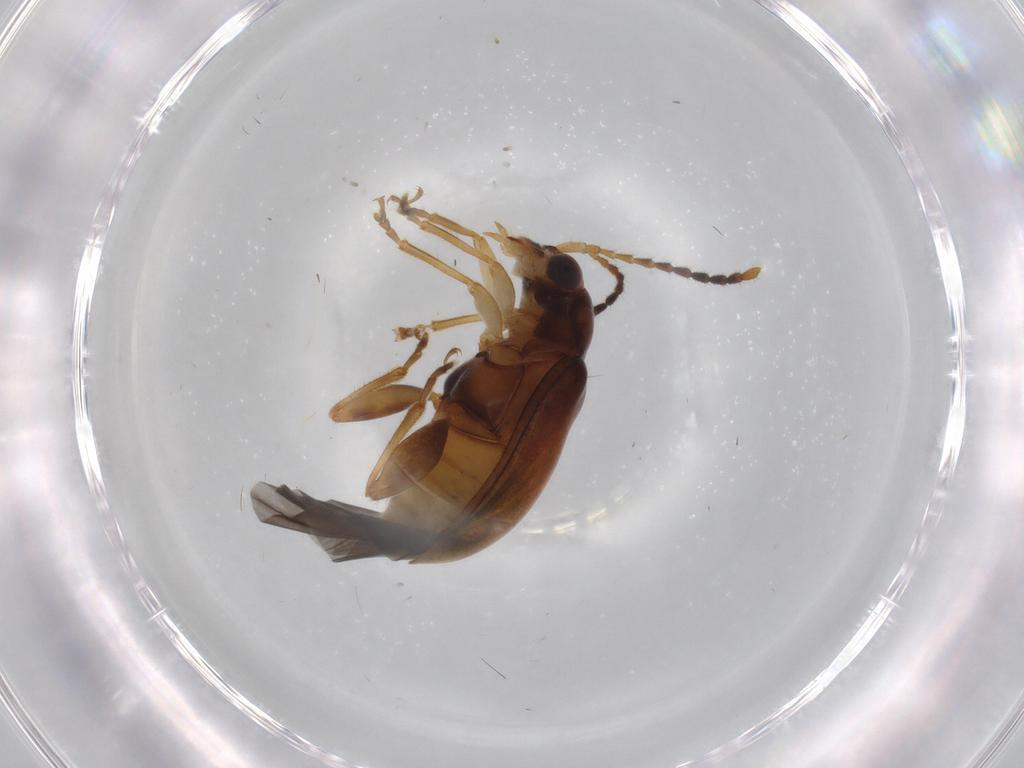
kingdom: Animalia
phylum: Arthropoda
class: Insecta
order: Coleoptera
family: Chrysomelidae
